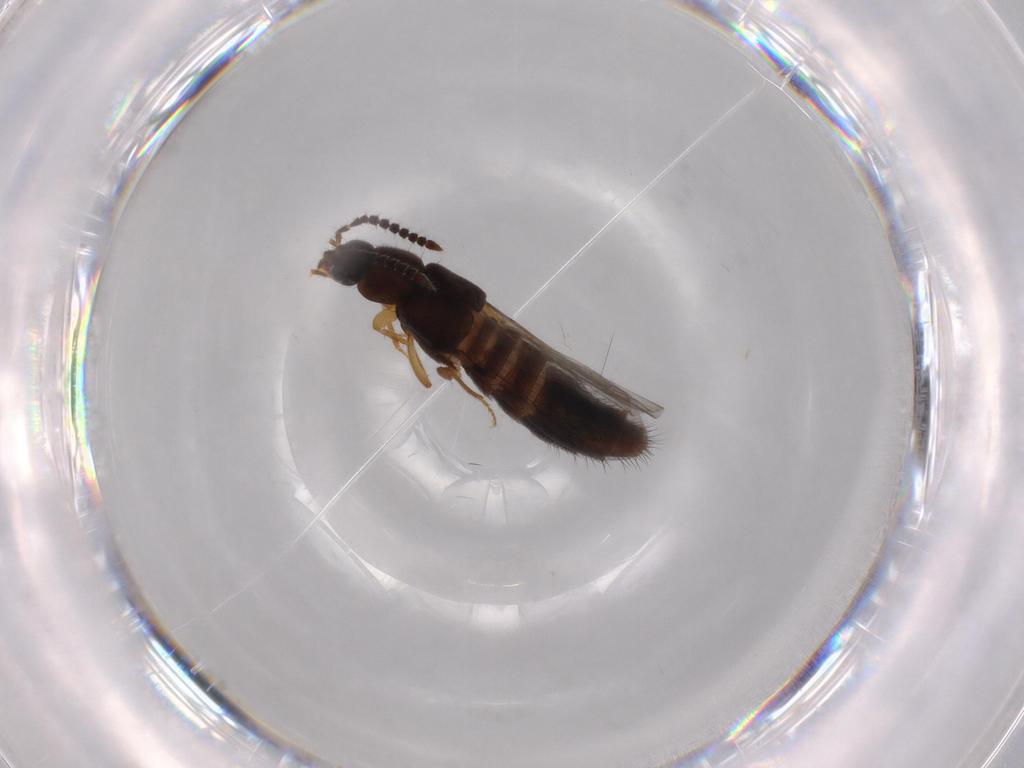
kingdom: Animalia
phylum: Arthropoda
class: Insecta
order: Coleoptera
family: Staphylinidae
